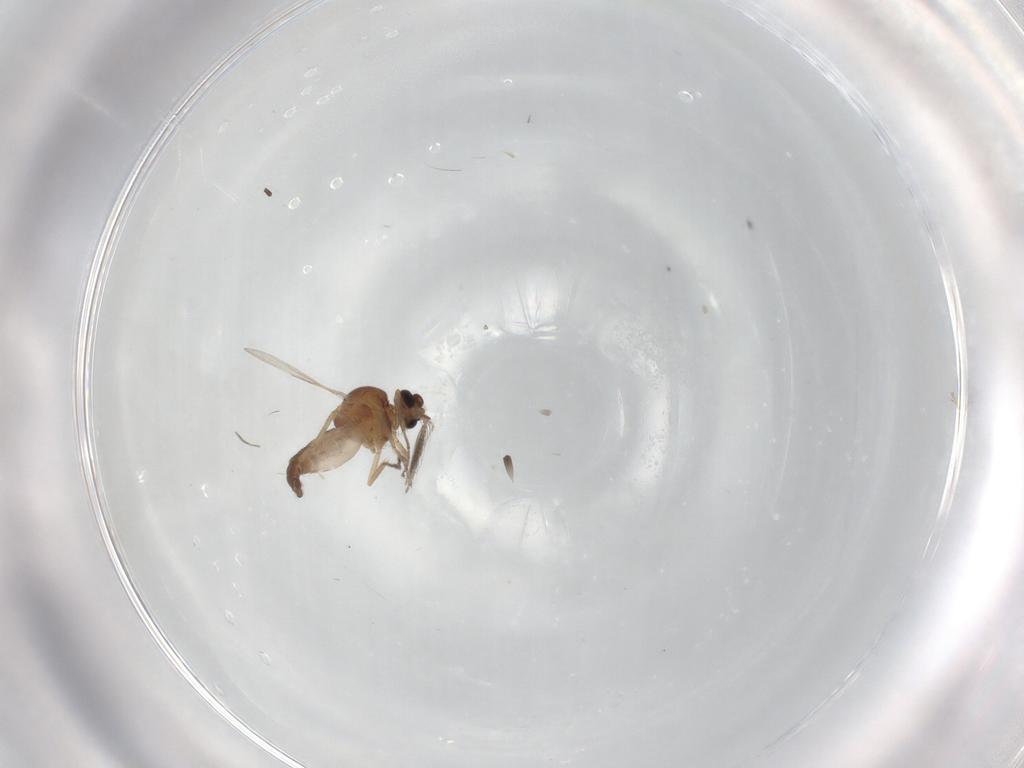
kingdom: Animalia
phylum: Arthropoda
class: Insecta
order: Diptera
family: Ceratopogonidae
